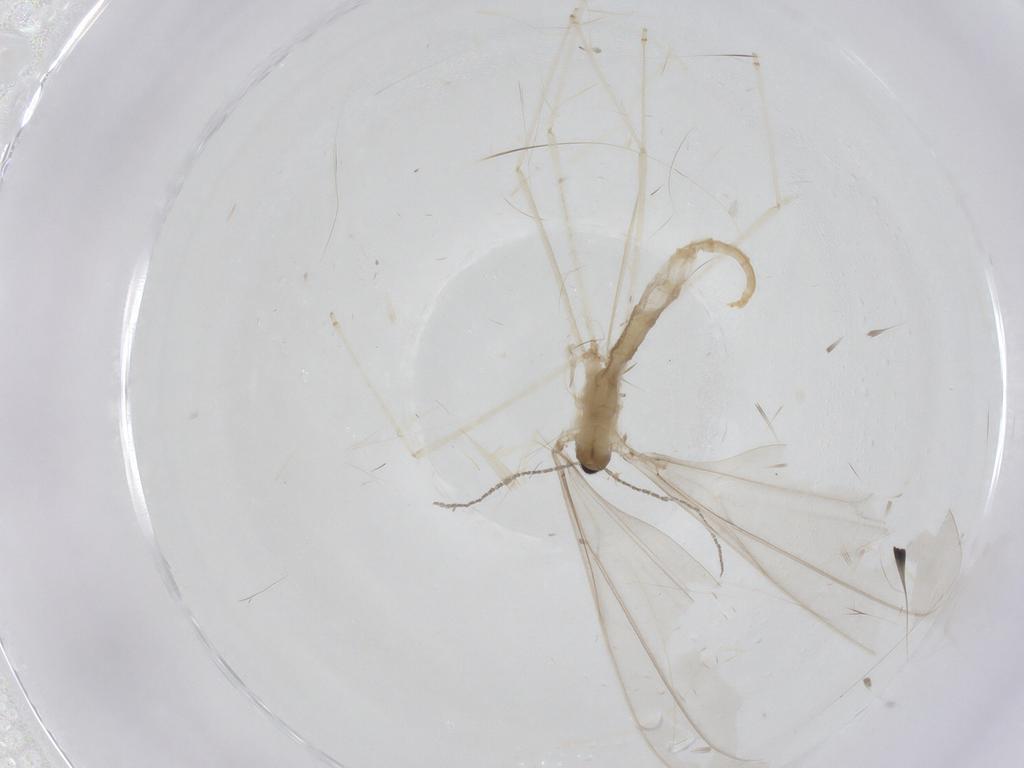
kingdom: Animalia
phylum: Arthropoda
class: Insecta
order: Diptera
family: Cecidomyiidae
